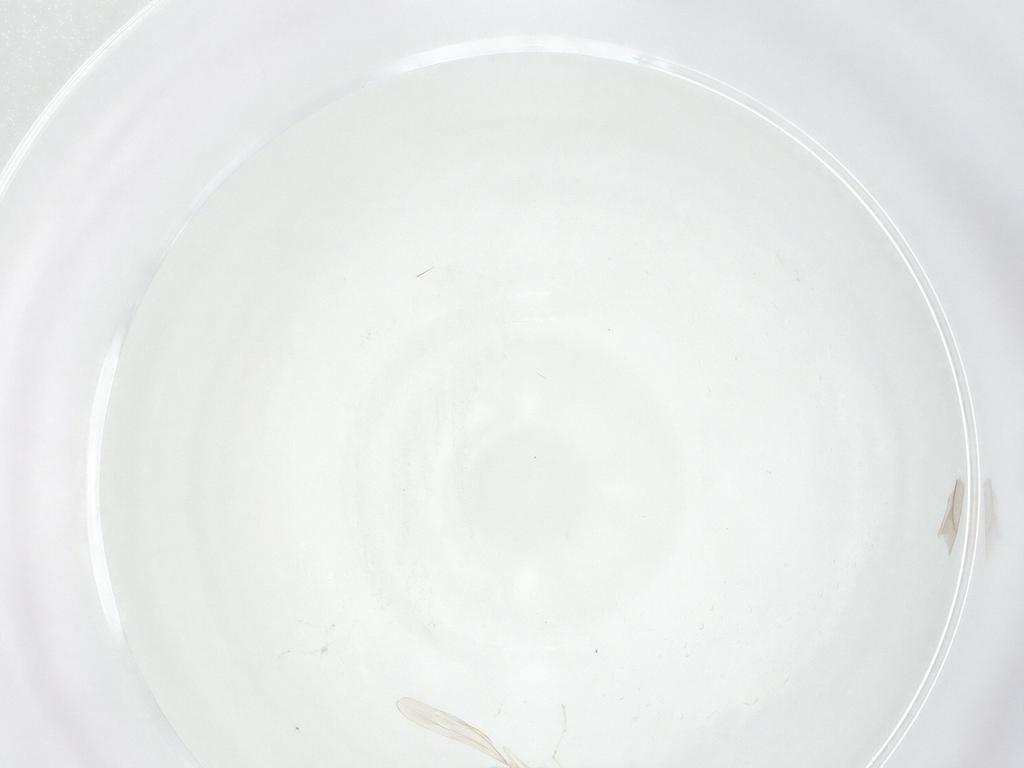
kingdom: Animalia
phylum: Arthropoda
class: Insecta
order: Diptera
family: Cecidomyiidae
